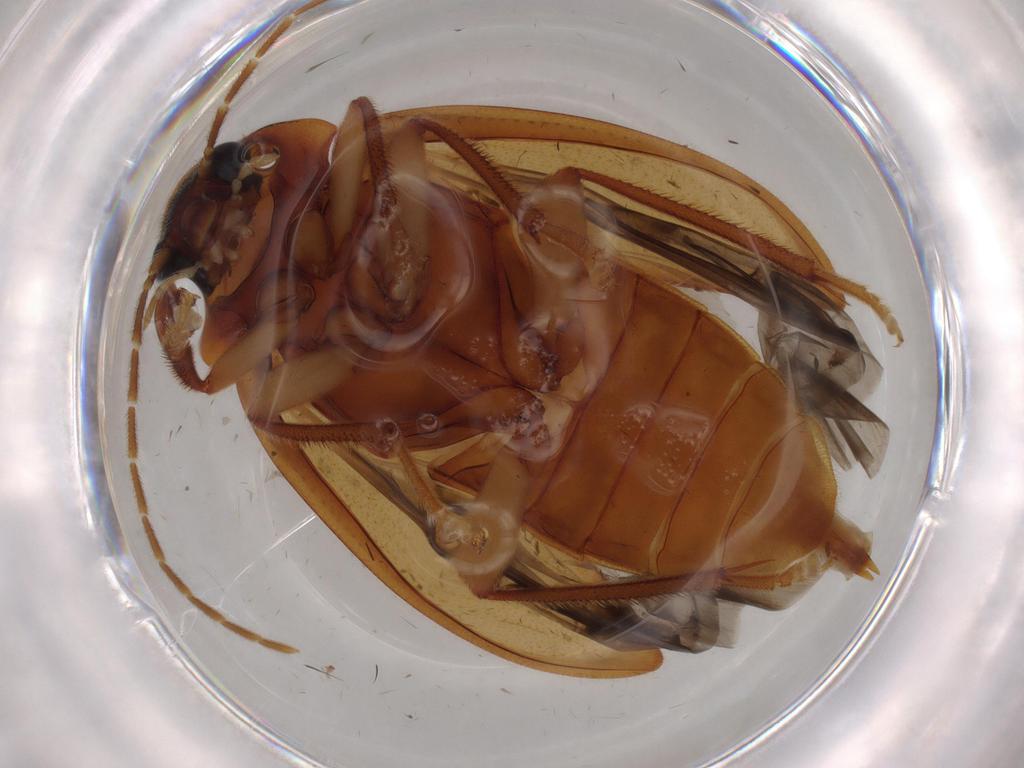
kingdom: Animalia
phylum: Arthropoda
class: Insecta
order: Coleoptera
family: Ptilodactylidae
